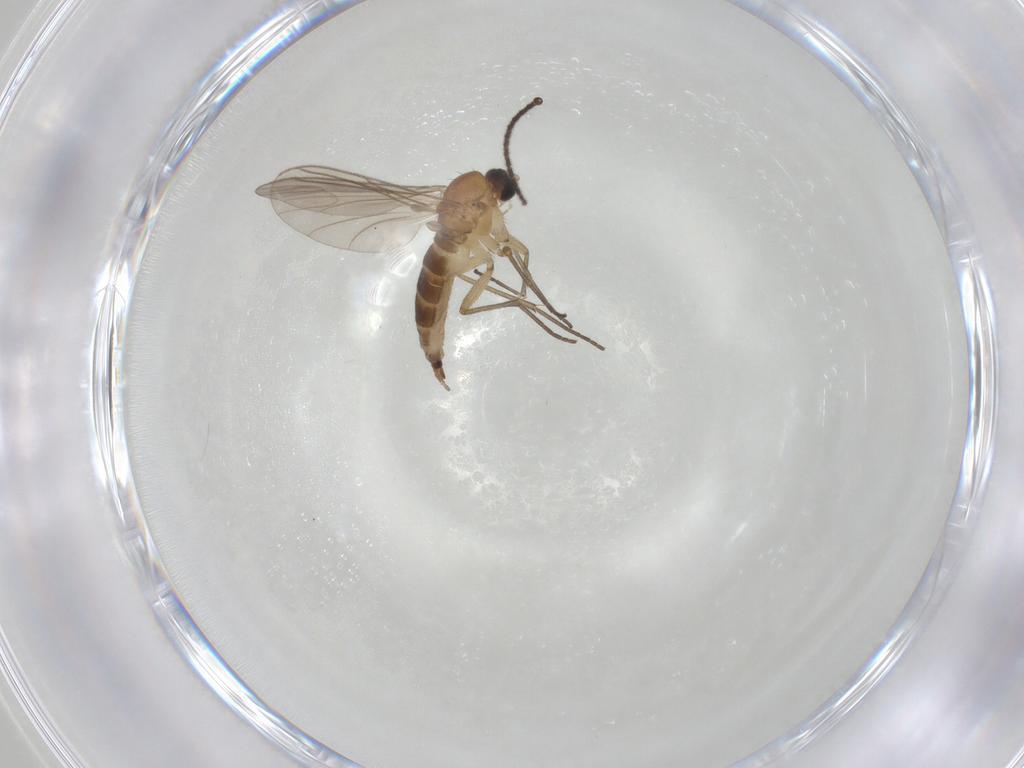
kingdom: Animalia
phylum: Arthropoda
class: Insecta
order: Diptera
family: Sciaridae
